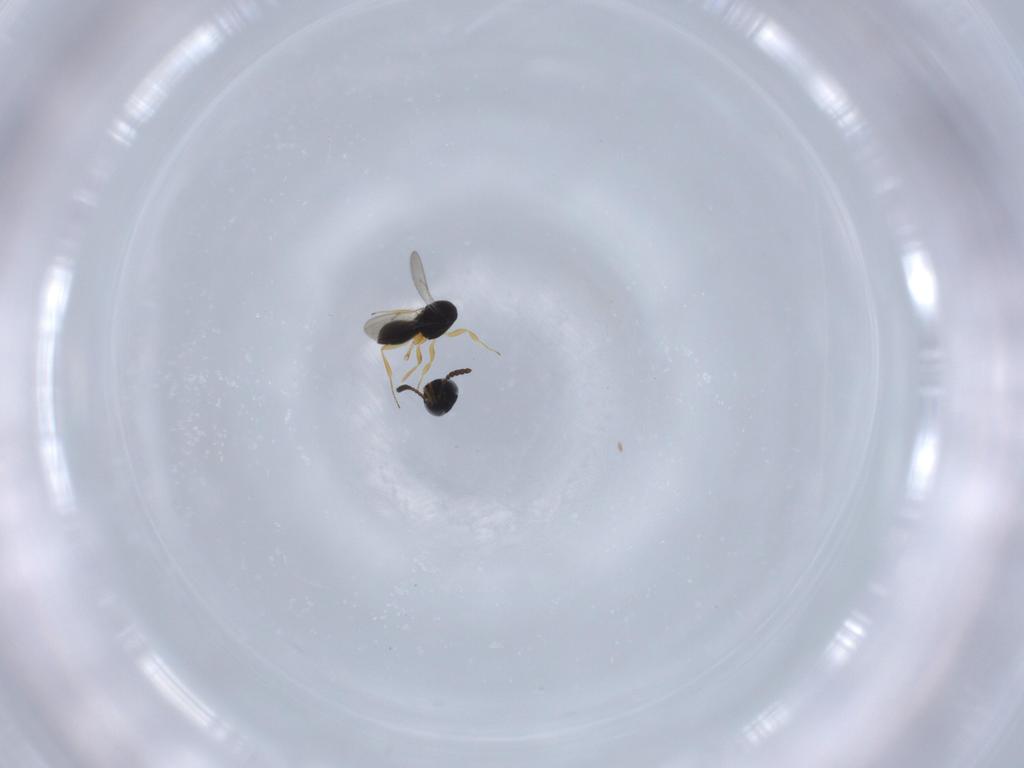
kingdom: Animalia
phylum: Arthropoda
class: Insecta
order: Hymenoptera
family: Scelionidae
